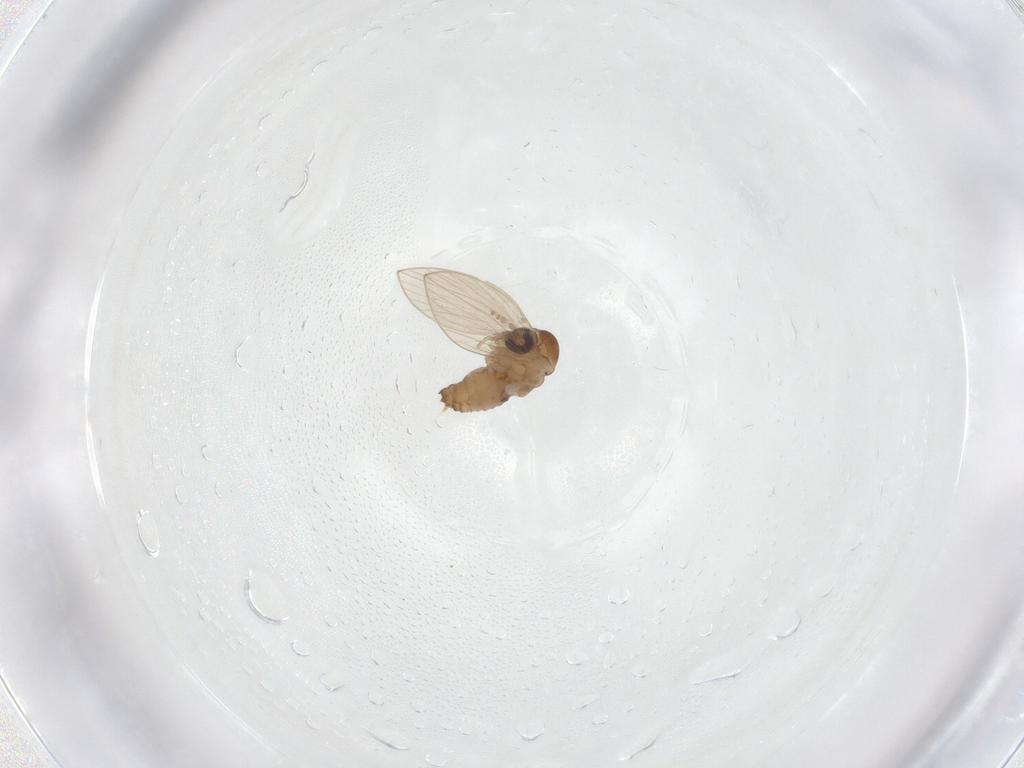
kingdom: Animalia
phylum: Arthropoda
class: Insecta
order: Diptera
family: Psychodidae
